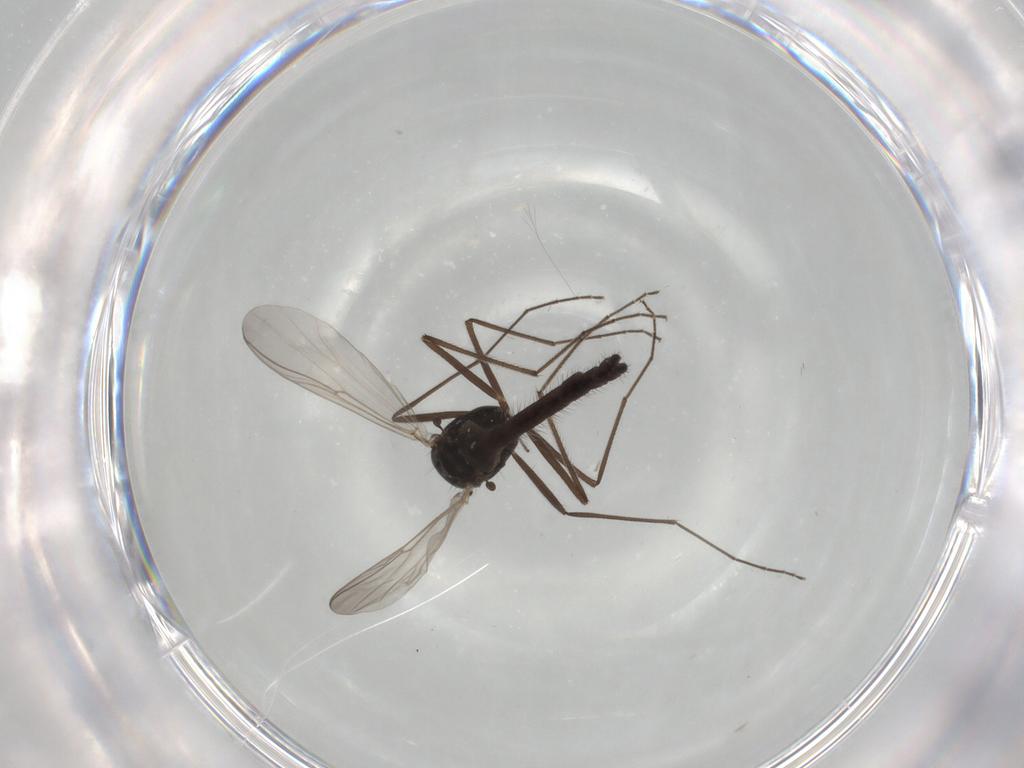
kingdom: Animalia
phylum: Arthropoda
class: Insecta
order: Diptera
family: Chironomidae
